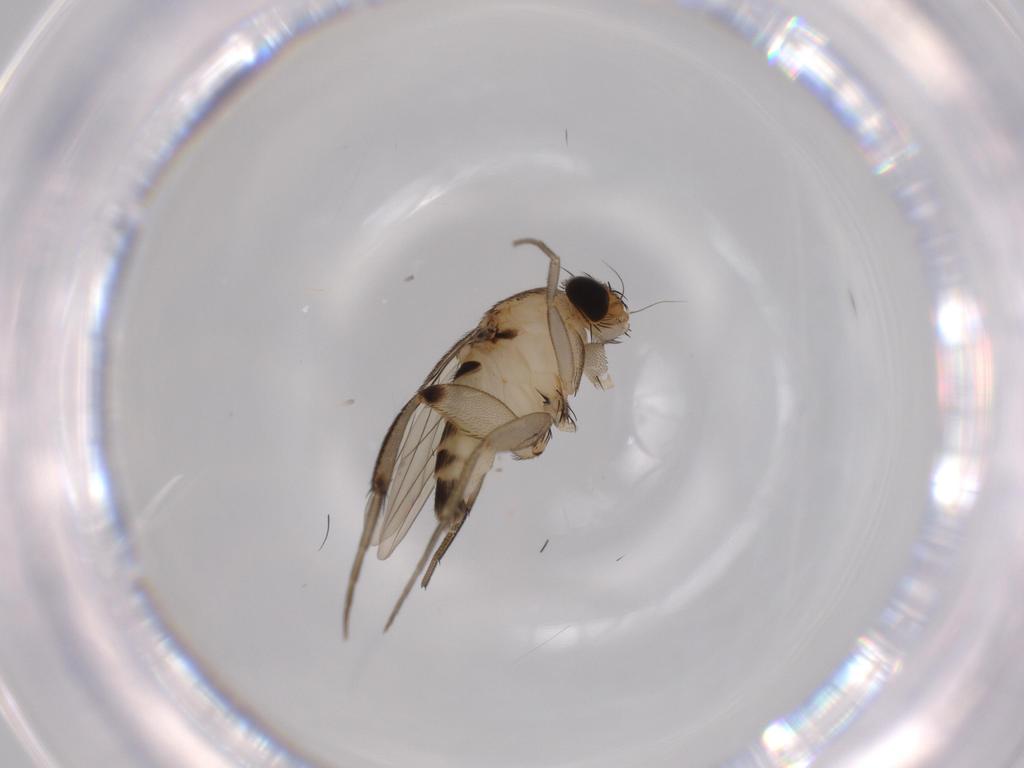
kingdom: Animalia
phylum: Arthropoda
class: Insecta
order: Diptera
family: Phoridae
